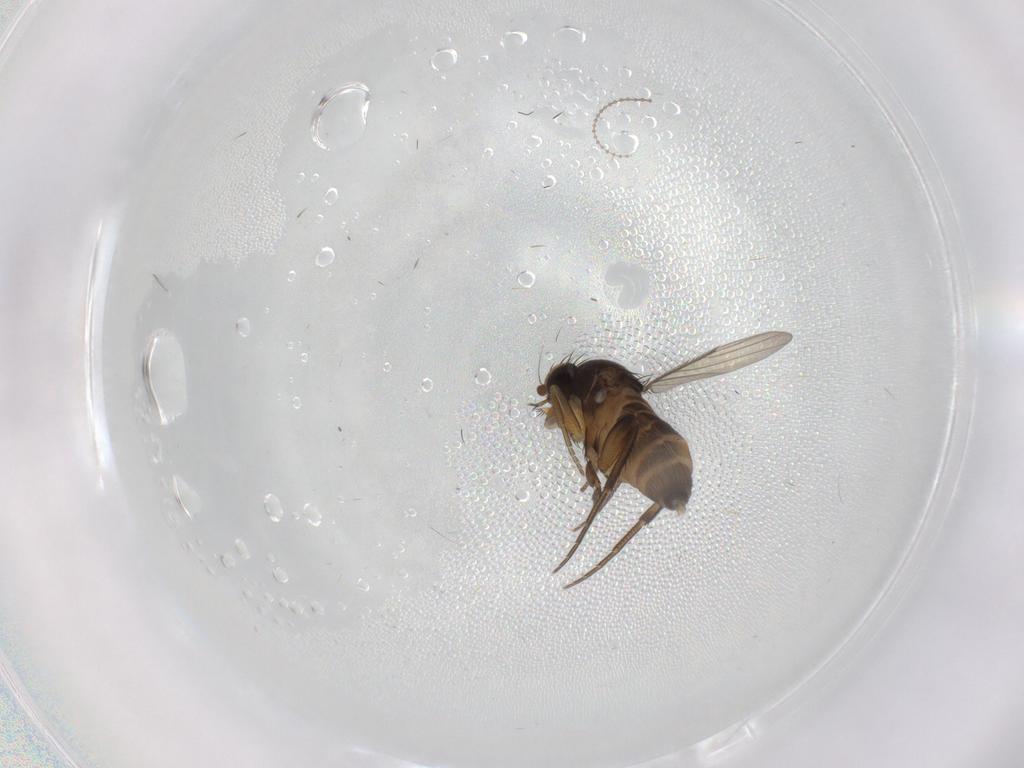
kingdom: Animalia
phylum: Arthropoda
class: Insecta
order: Diptera
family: Phoridae
